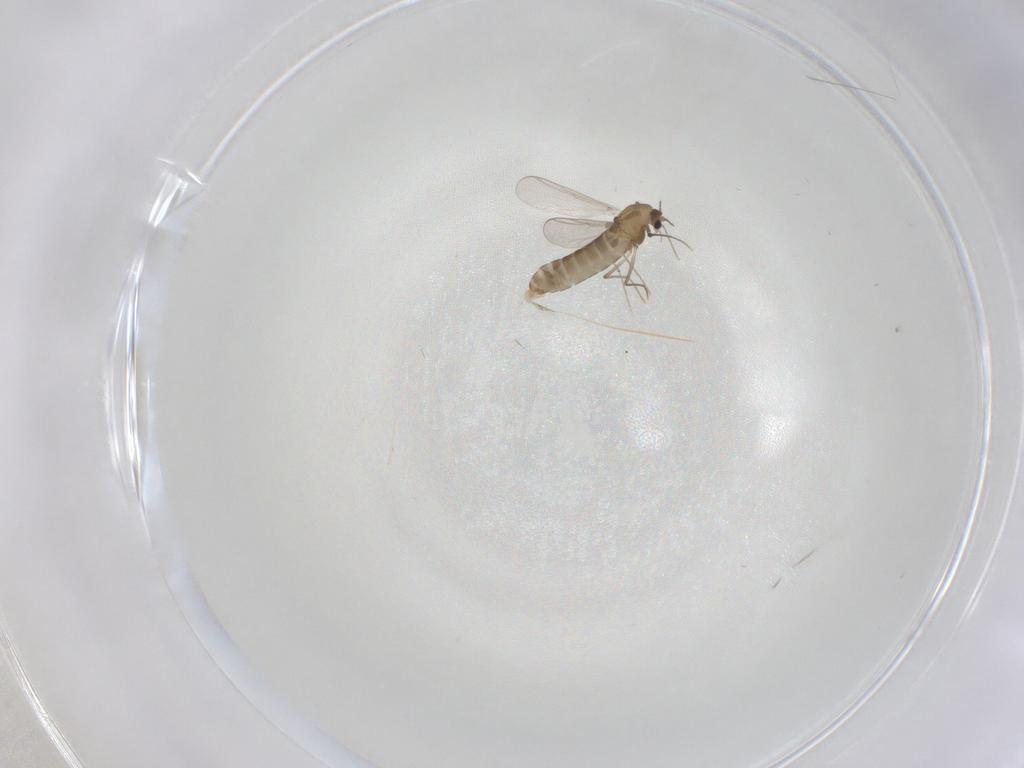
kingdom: Animalia
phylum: Arthropoda
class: Insecta
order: Diptera
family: Chironomidae
